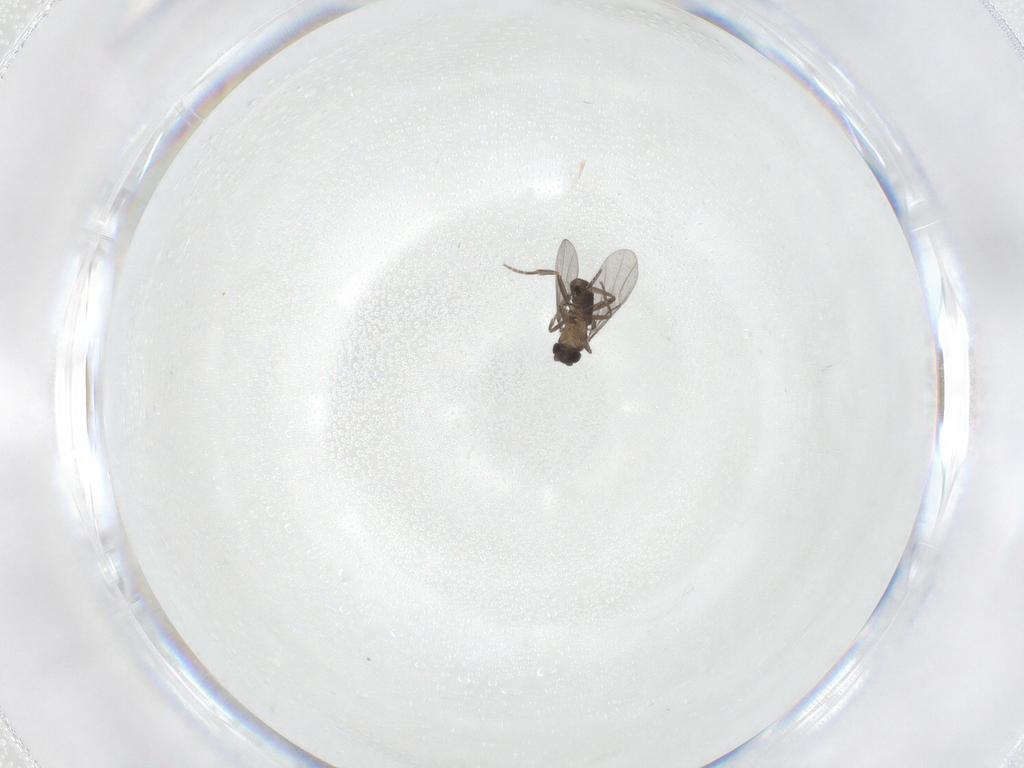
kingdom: Animalia
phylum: Arthropoda
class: Insecta
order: Diptera
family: Phoridae
